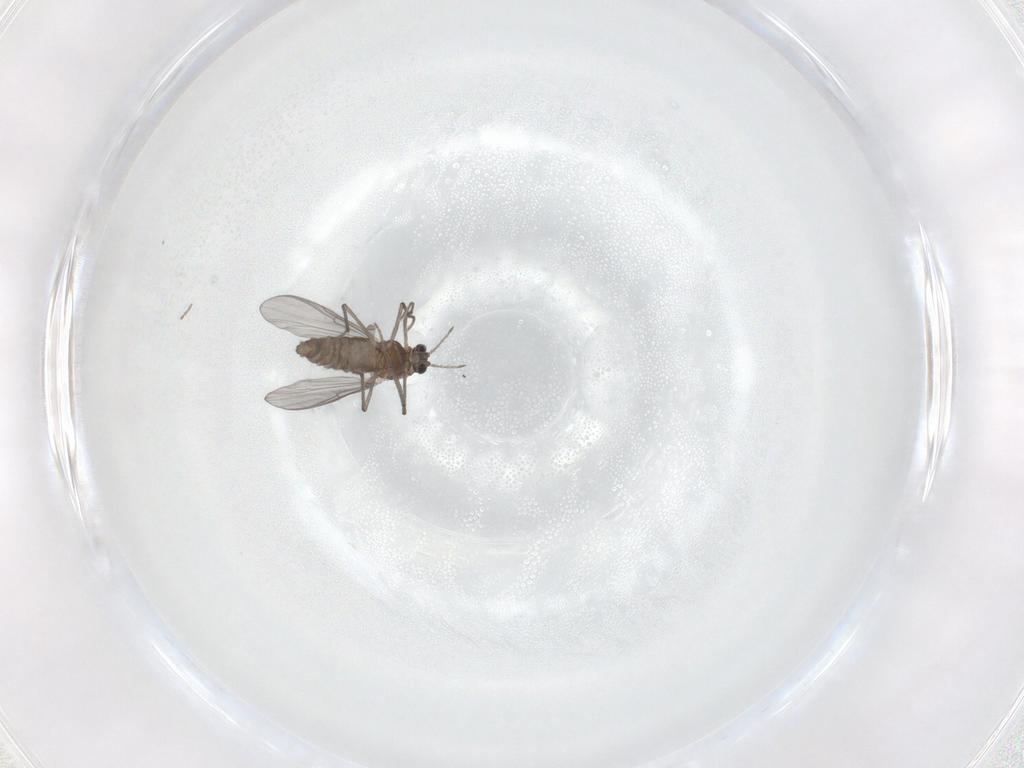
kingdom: Animalia
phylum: Arthropoda
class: Insecta
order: Diptera
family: Chironomidae
